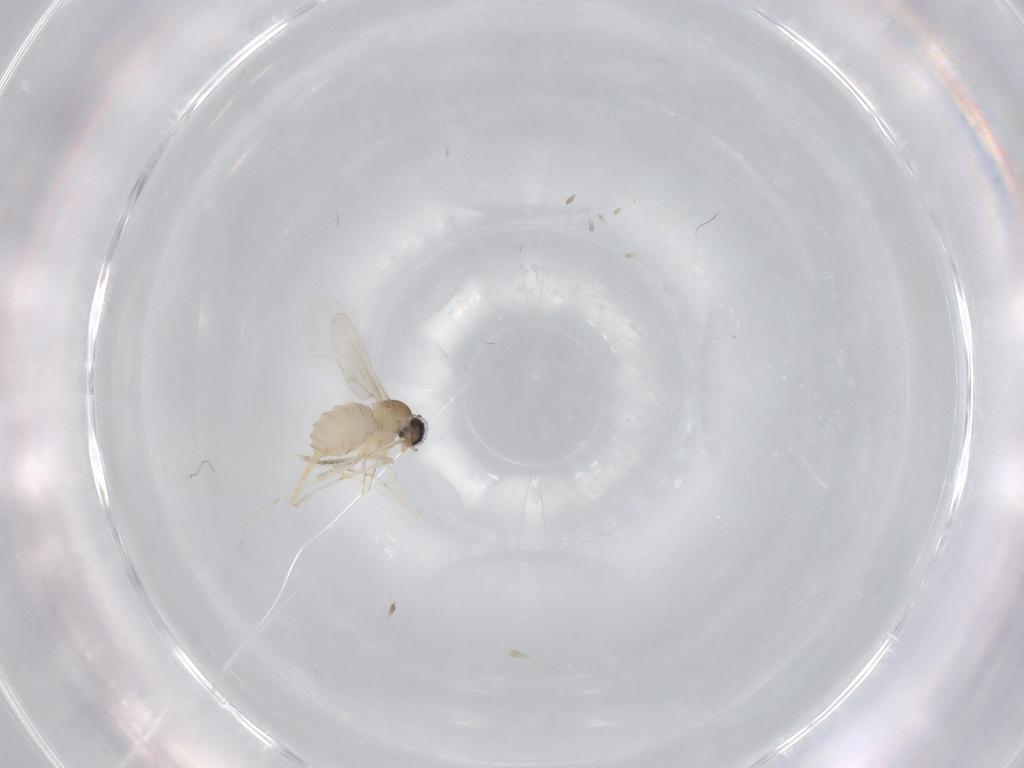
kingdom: Animalia
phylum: Arthropoda
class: Insecta
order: Diptera
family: Cecidomyiidae
